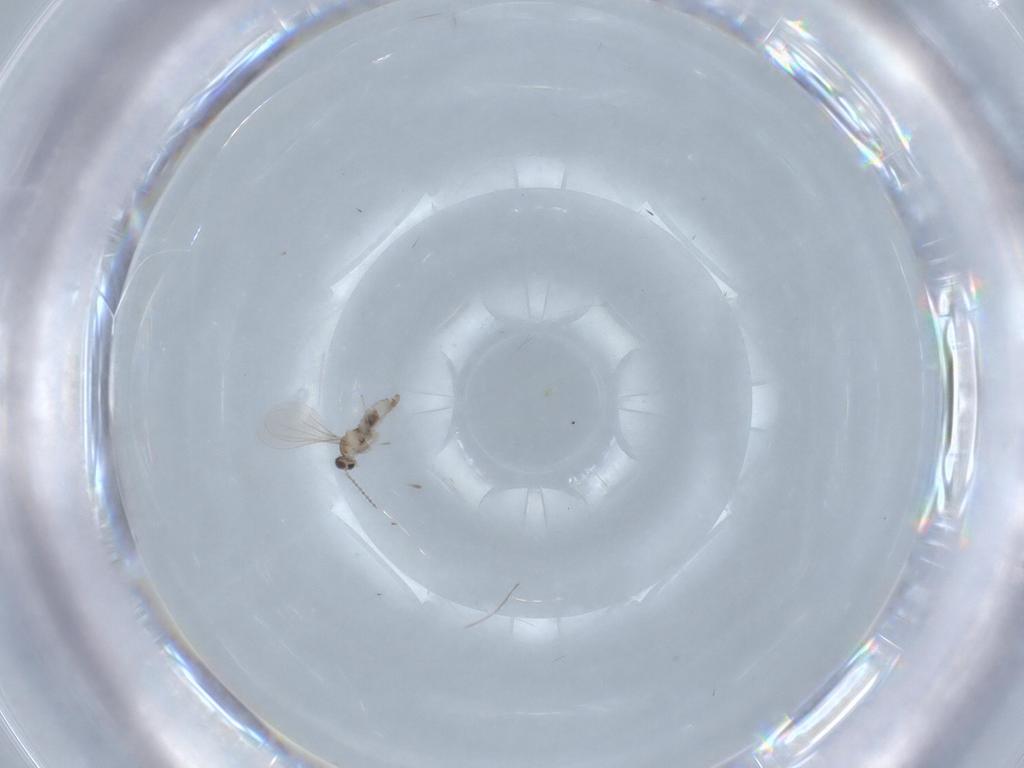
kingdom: Animalia
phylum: Arthropoda
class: Insecta
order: Diptera
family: Cecidomyiidae
